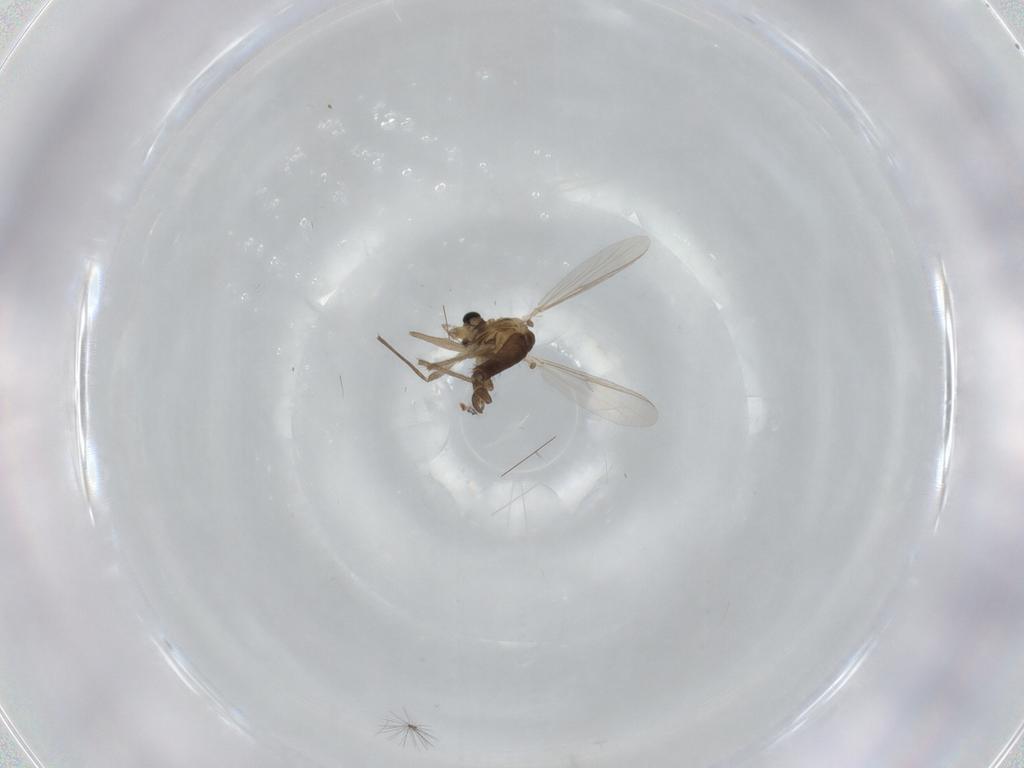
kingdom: Animalia
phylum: Arthropoda
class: Insecta
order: Diptera
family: Chironomidae
